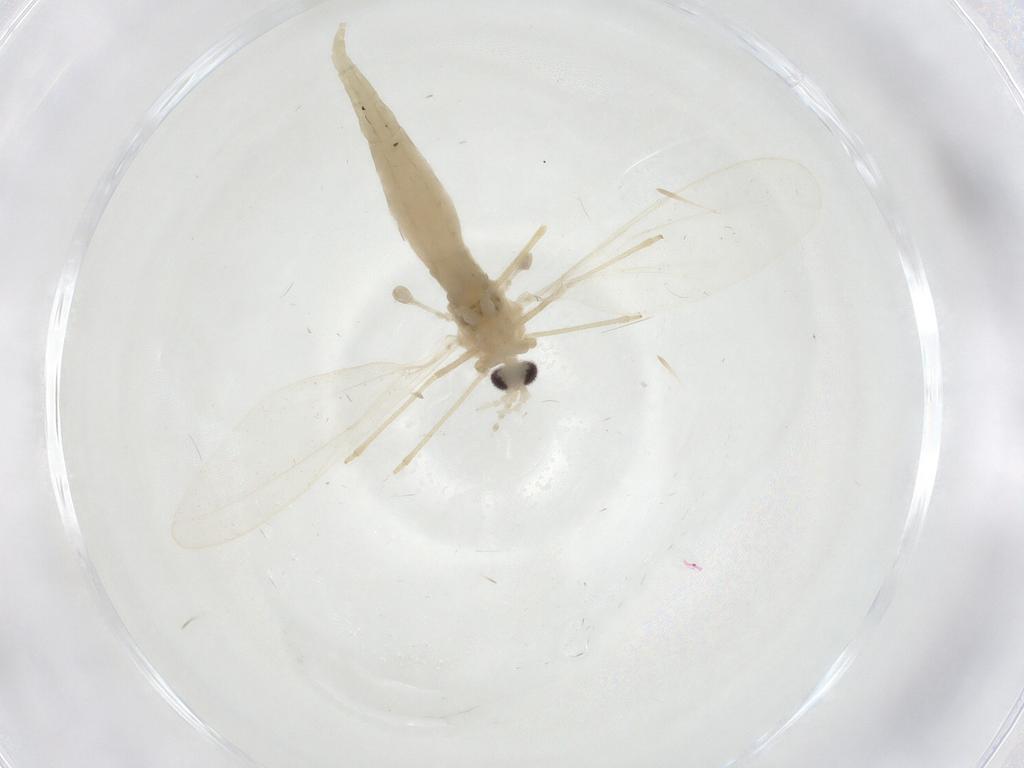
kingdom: Animalia
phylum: Arthropoda
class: Insecta
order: Diptera
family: Cecidomyiidae
